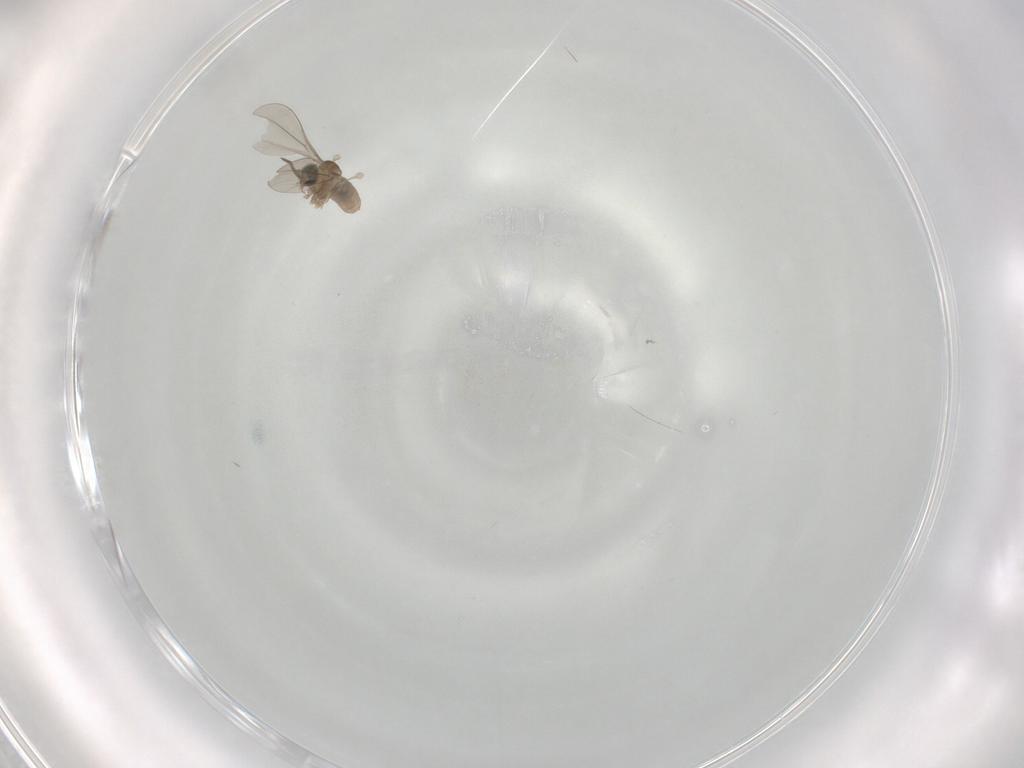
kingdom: Animalia
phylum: Arthropoda
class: Insecta
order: Diptera
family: Cecidomyiidae
